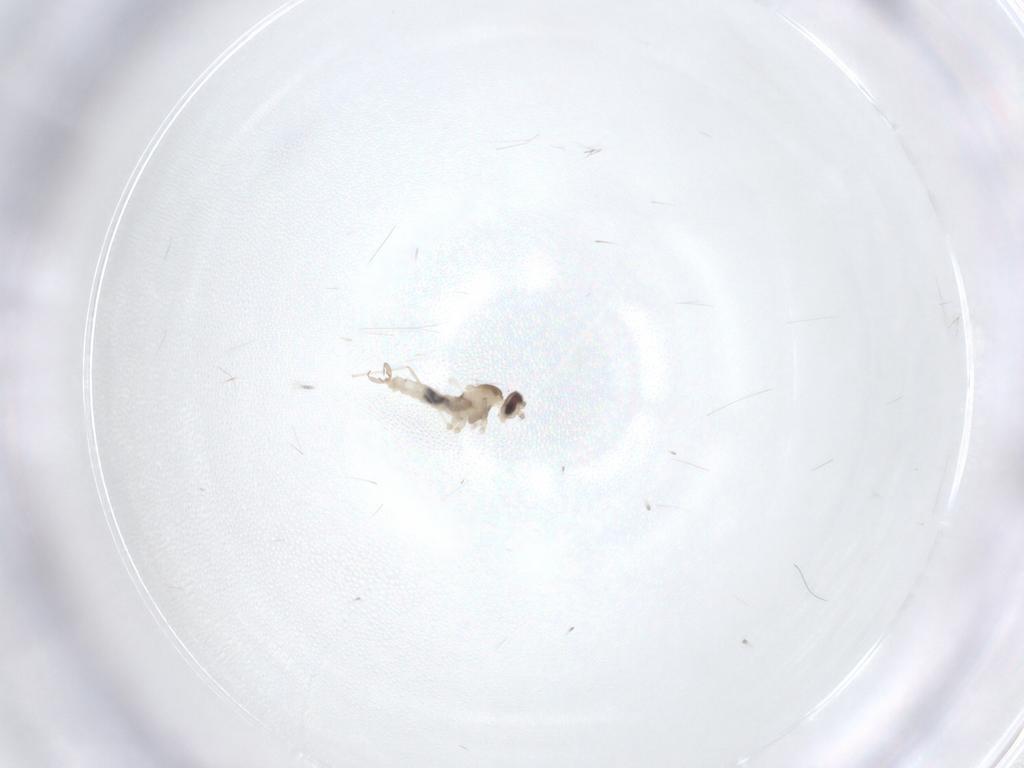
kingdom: Animalia
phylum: Arthropoda
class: Insecta
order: Diptera
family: Cecidomyiidae
